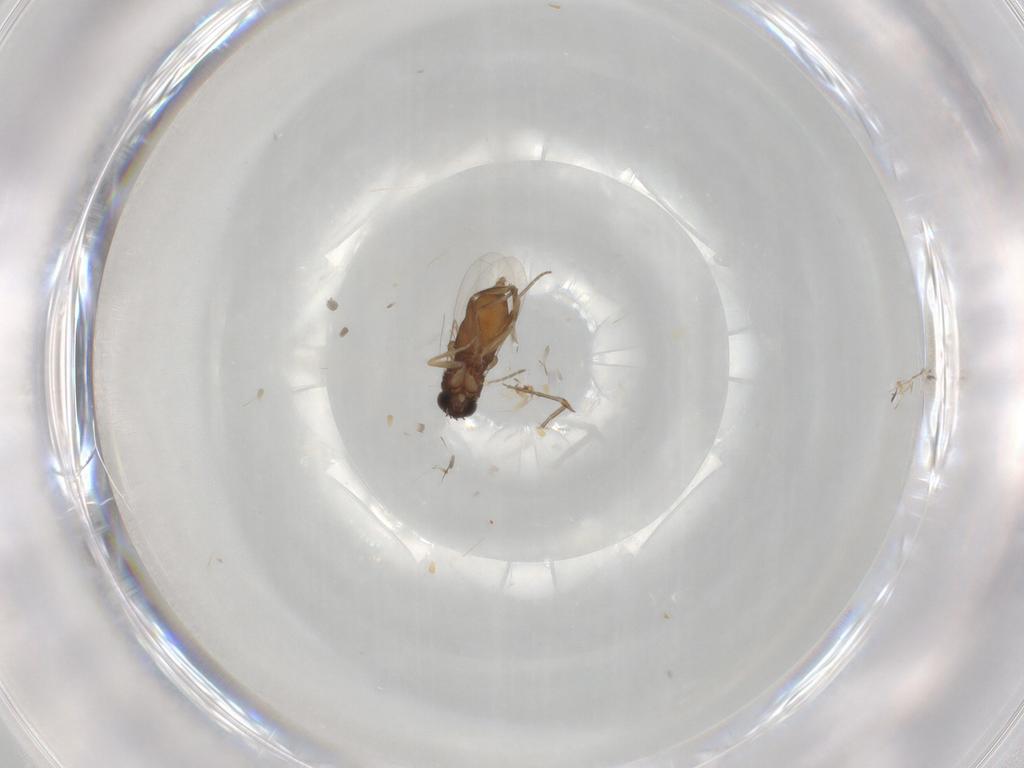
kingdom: Animalia
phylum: Arthropoda
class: Insecta
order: Diptera
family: Phoridae
